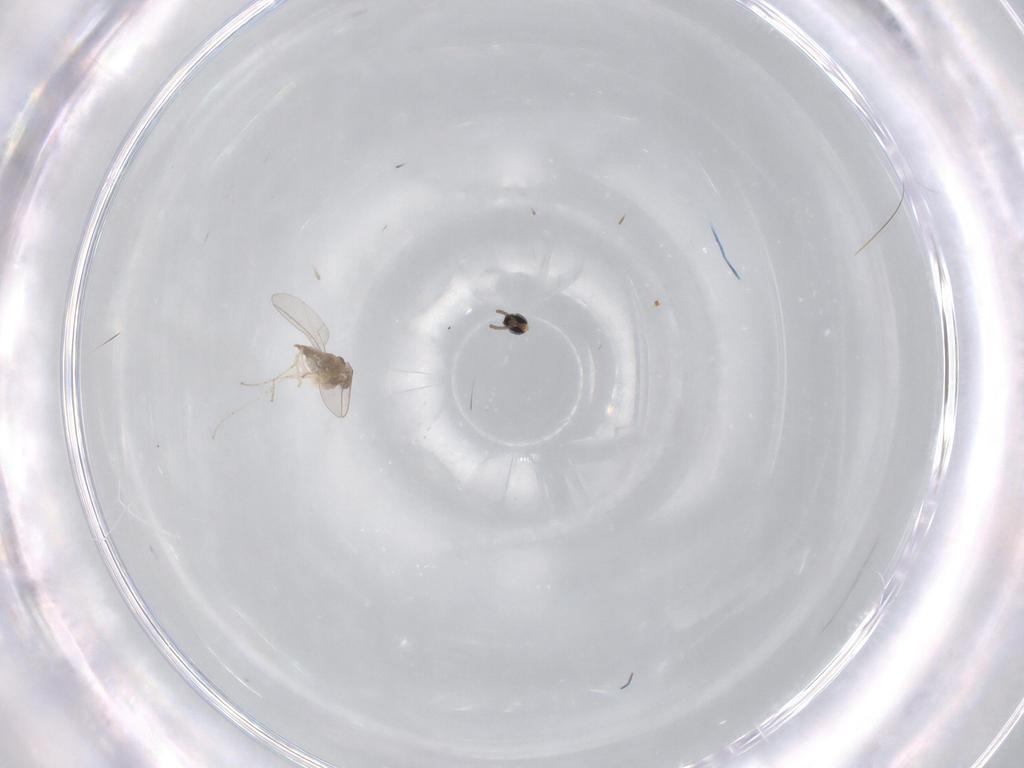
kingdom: Animalia
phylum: Arthropoda
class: Insecta
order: Diptera
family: Cecidomyiidae
